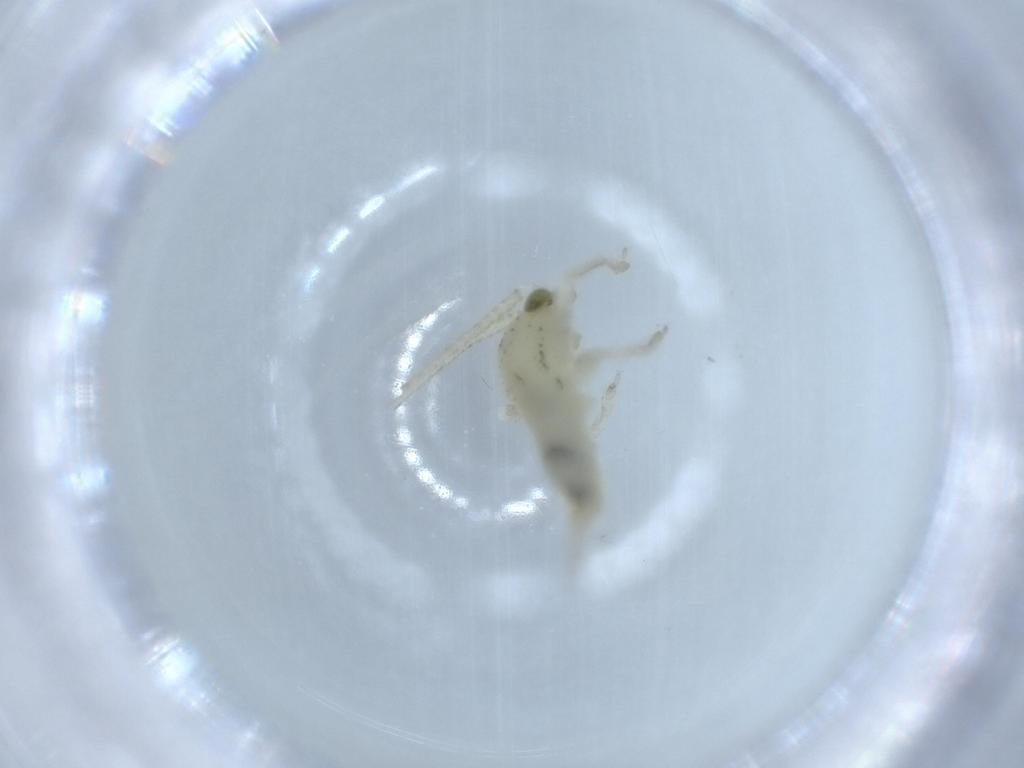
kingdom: Animalia
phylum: Arthropoda
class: Insecta
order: Orthoptera
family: Trigonidiidae
